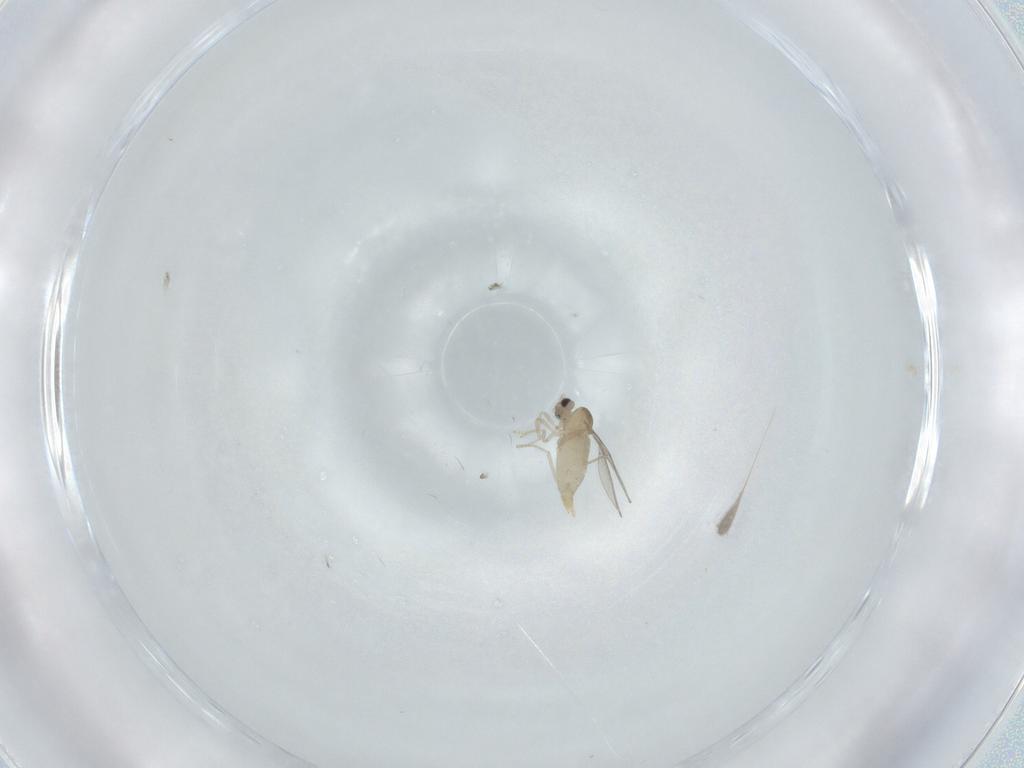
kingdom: Animalia
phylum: Arthropoda
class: Insecta
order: Diptera
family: Cecidomyiidae
